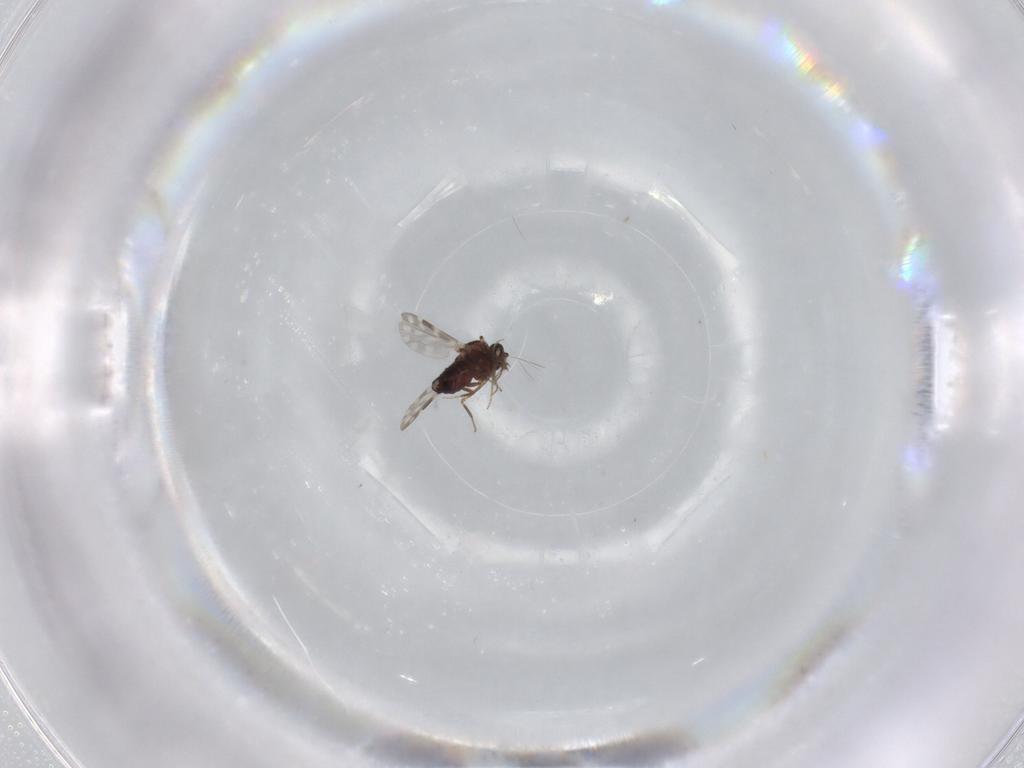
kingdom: Animalia
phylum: Arthropoda
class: Insecta
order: Diptera
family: Ceratopogonidae
